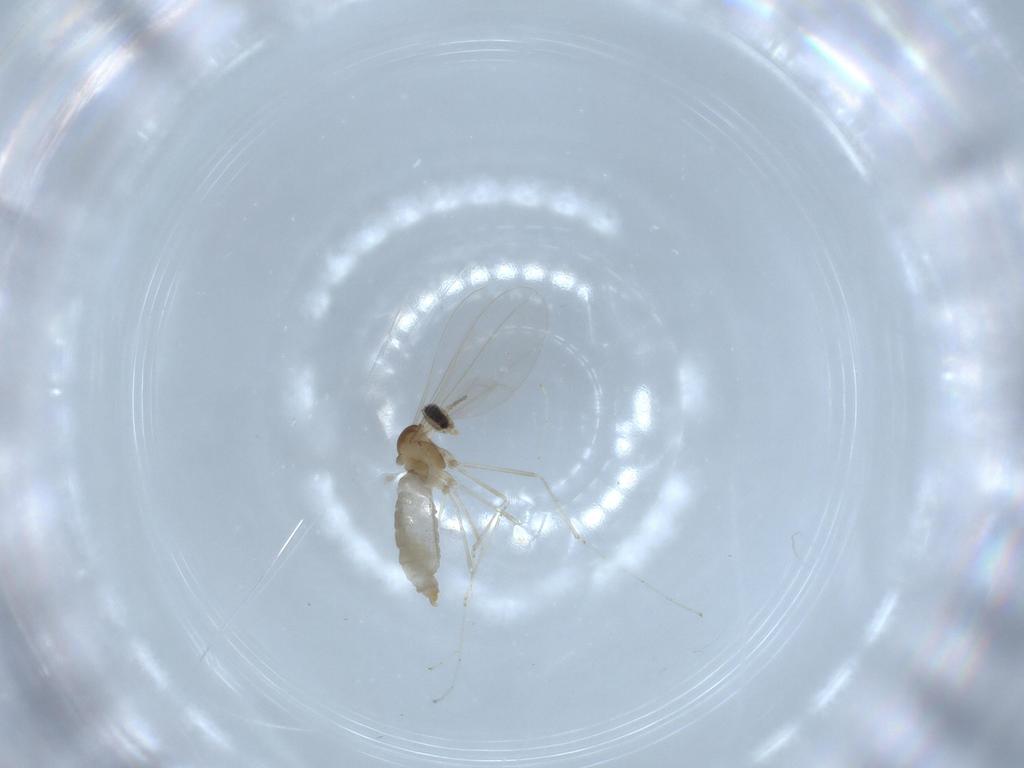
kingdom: Animalia
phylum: Arthropoda
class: Insecta
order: Diptera
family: Cecidomyiidae
